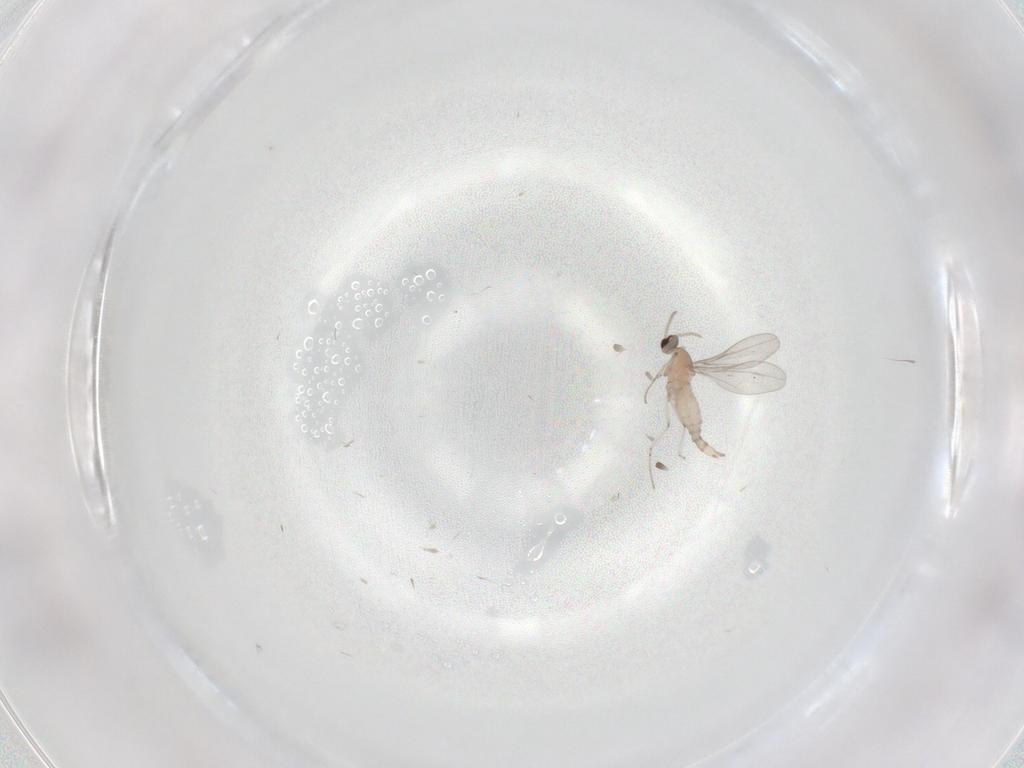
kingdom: Animalia
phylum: Arthropoda
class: Insecta
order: Diptera
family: Cecidomyiidae
